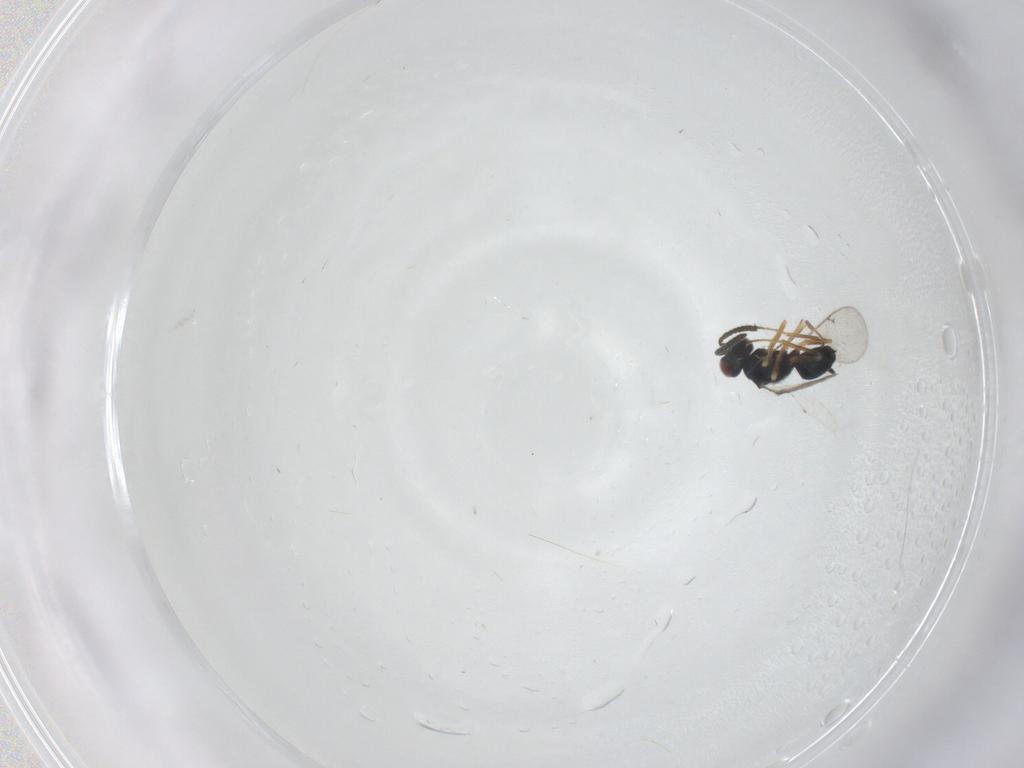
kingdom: Animalia
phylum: Arthropoda
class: Insecta
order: Hymenoptera
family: Tetracampidae
